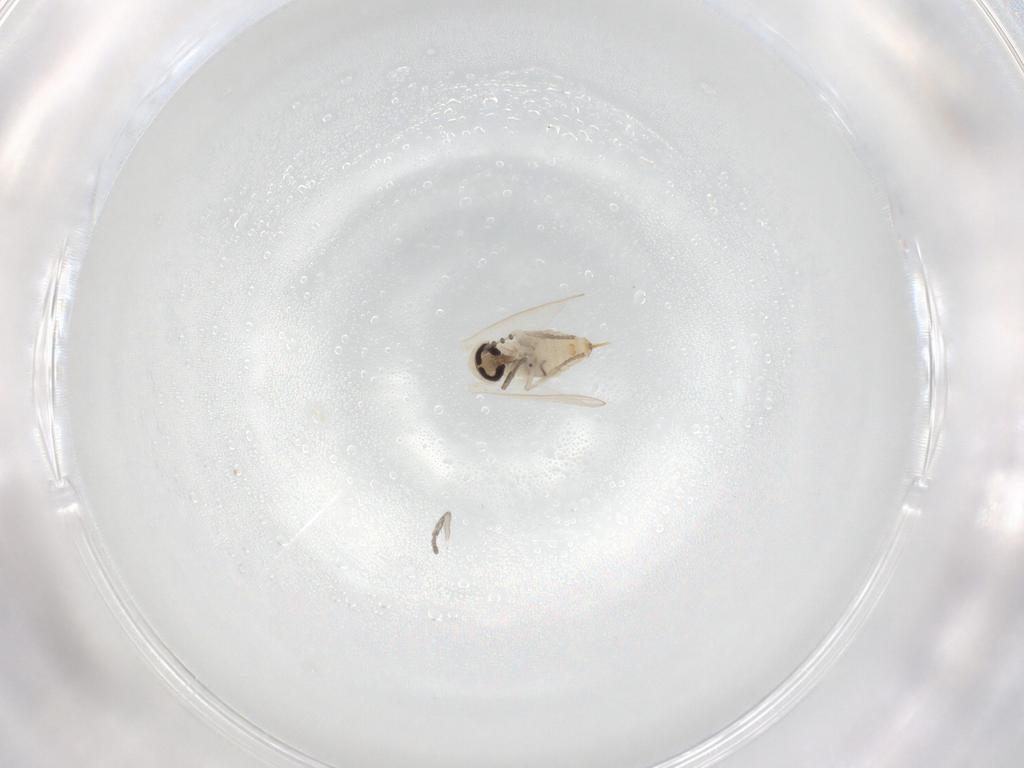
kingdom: Animalia
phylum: Arthropoda
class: Insecta
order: Diptera
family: Psychodidae
